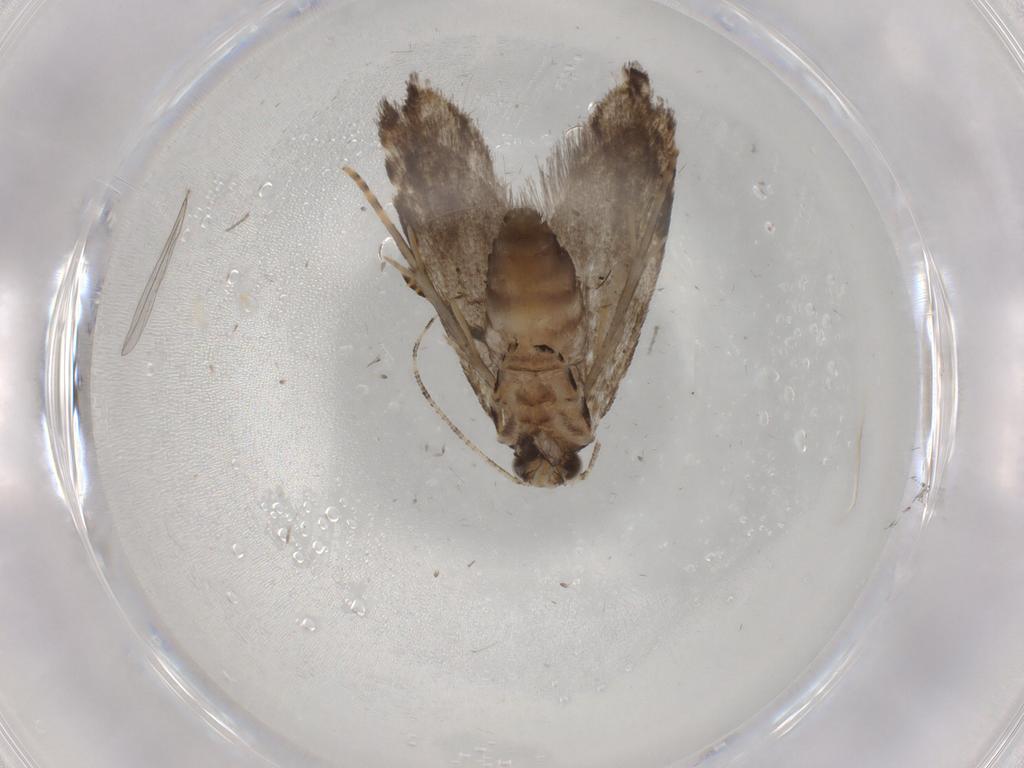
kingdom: Animalia
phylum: Arthropoda
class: Insecta
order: Lepidoptera
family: Tineidae
